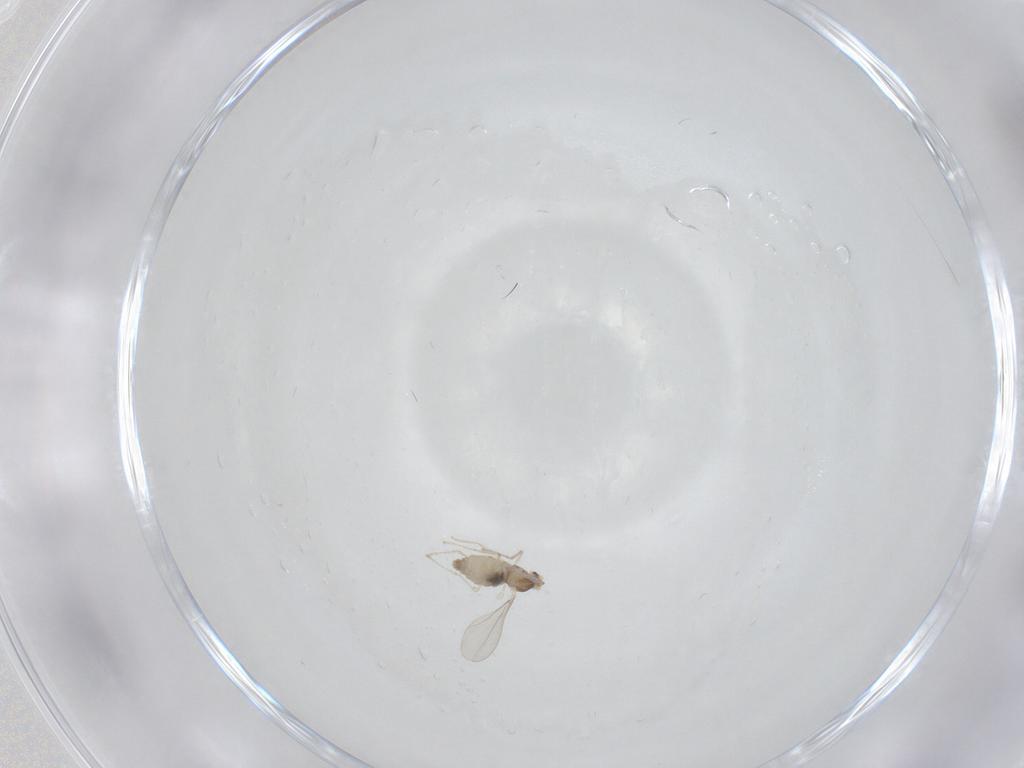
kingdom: Animalia
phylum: Arthropoda
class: Insecta
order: Diptera
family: Cecidomyiidae
